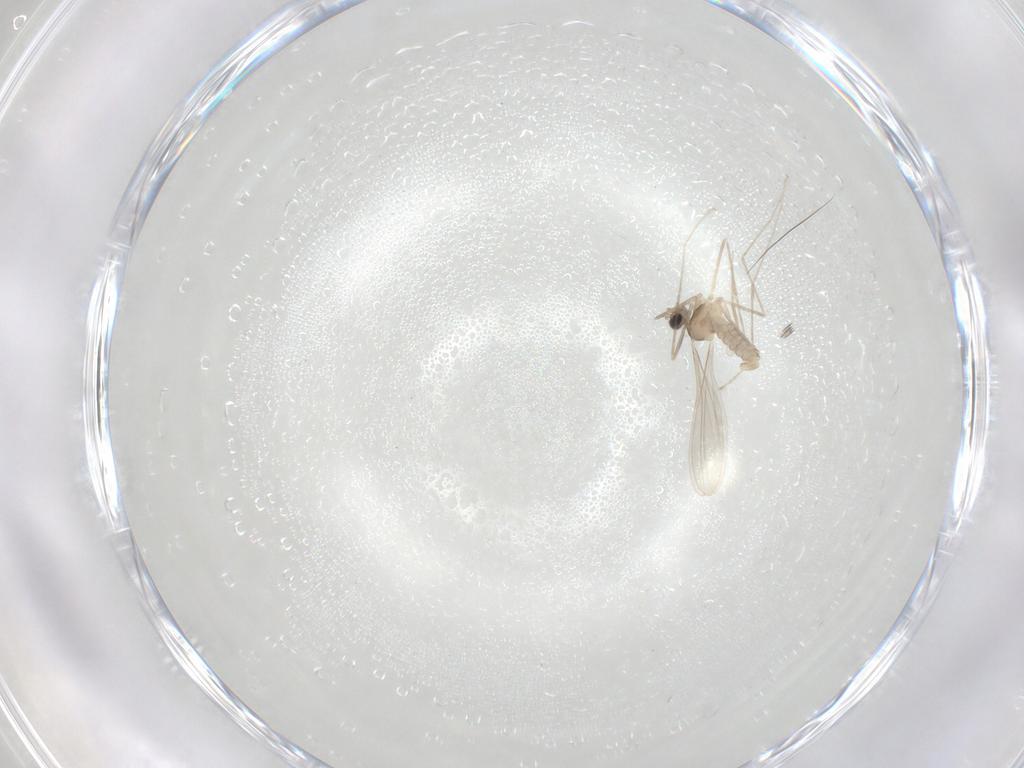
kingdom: Animalia
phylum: Arthropoda
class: Insecta
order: Diptera
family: Cecidomyiidae
